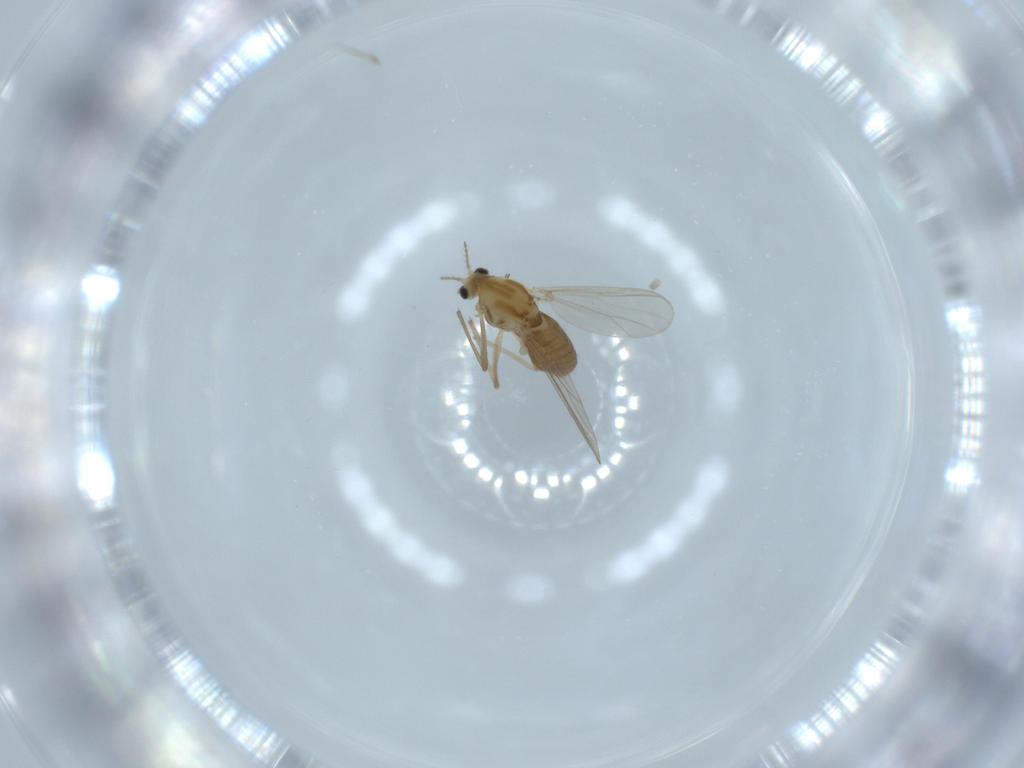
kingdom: Animalia
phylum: Arthropoda
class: Insecta
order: Diptera
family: Chironomidae
